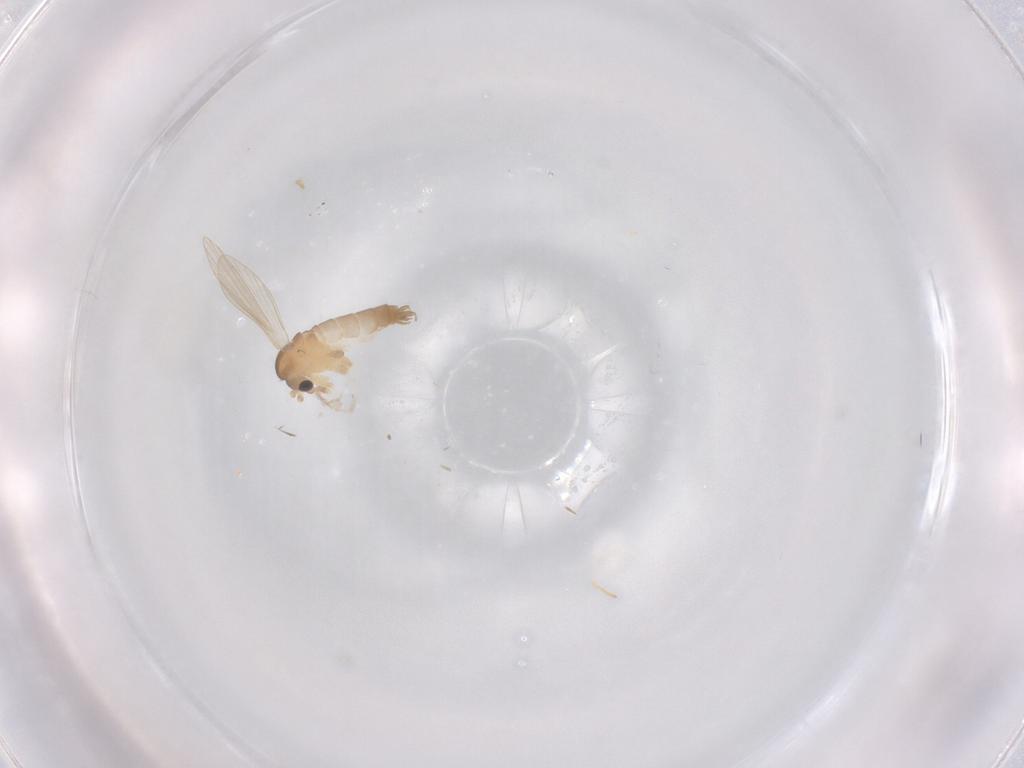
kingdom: Animalia
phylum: Arthropoda
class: Insecta
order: Diptera
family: Psychodidae
